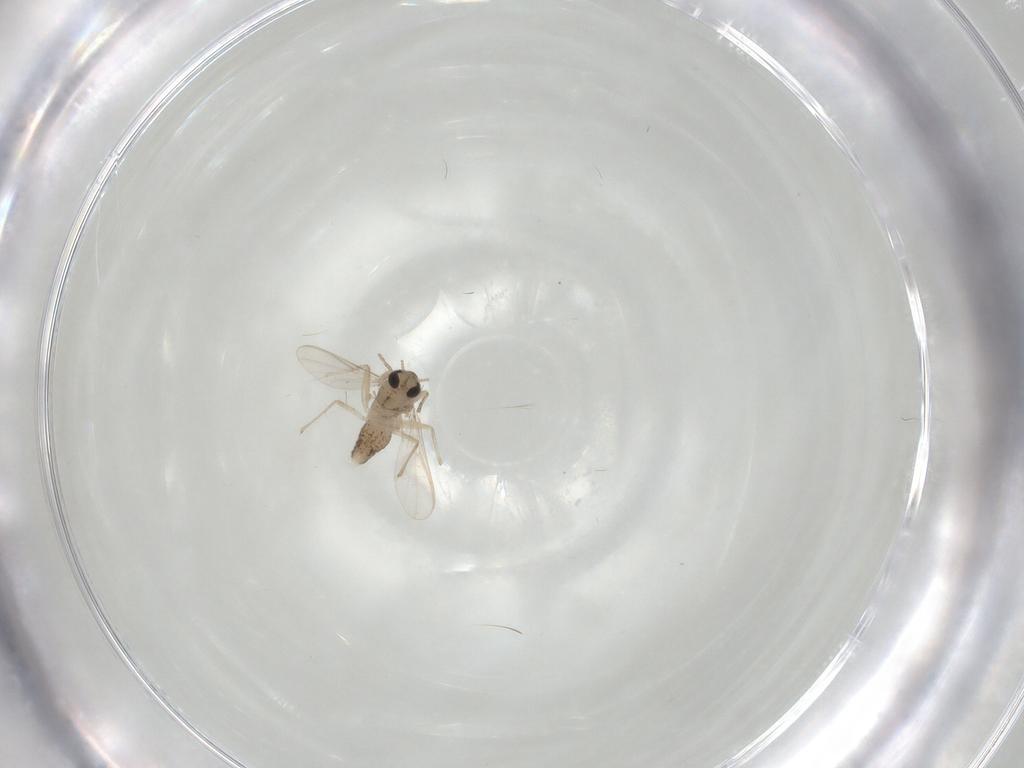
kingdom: Animalia
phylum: Arthropoda
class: Insecta
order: Diptera
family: Chironomidae
